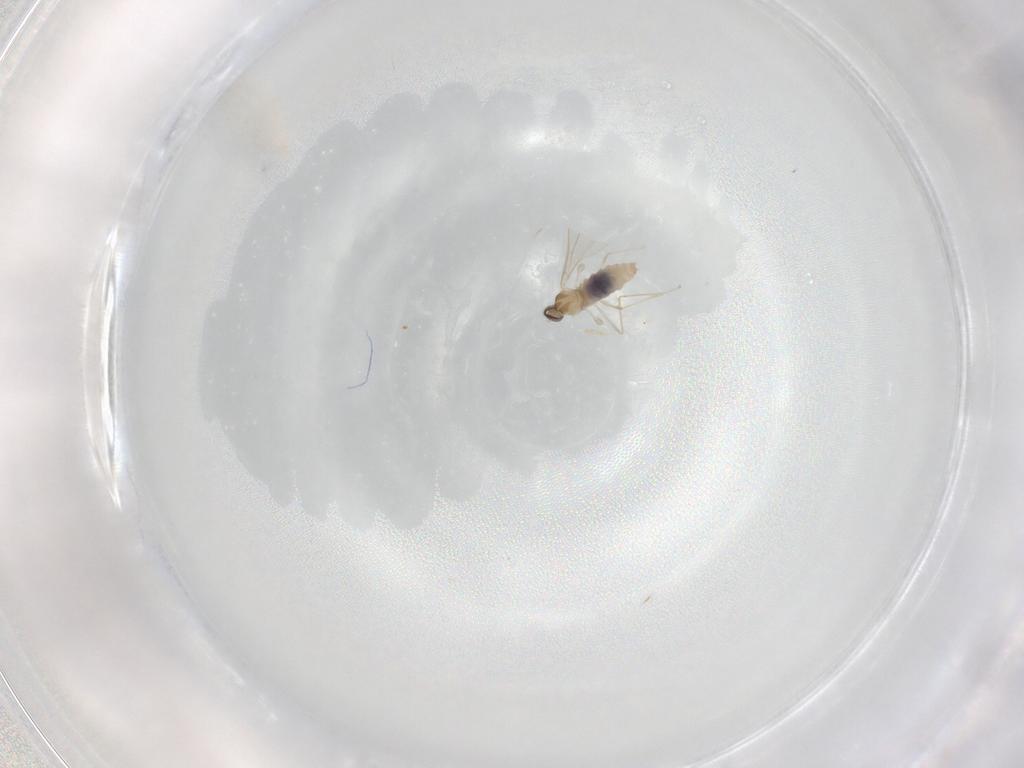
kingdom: Animalia
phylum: Arthropoda
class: Insecta
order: Diptera
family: Cecidomyiidae
